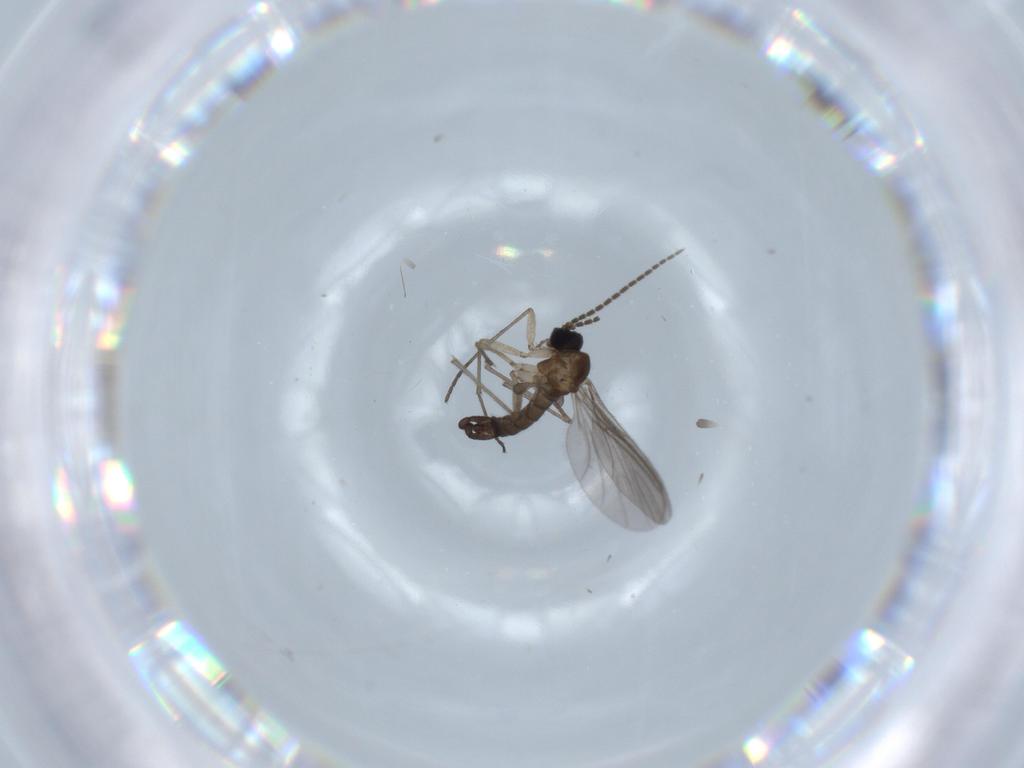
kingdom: Animalia
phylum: Arthropoda
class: Insecta
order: Diptera
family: Sciaridae
